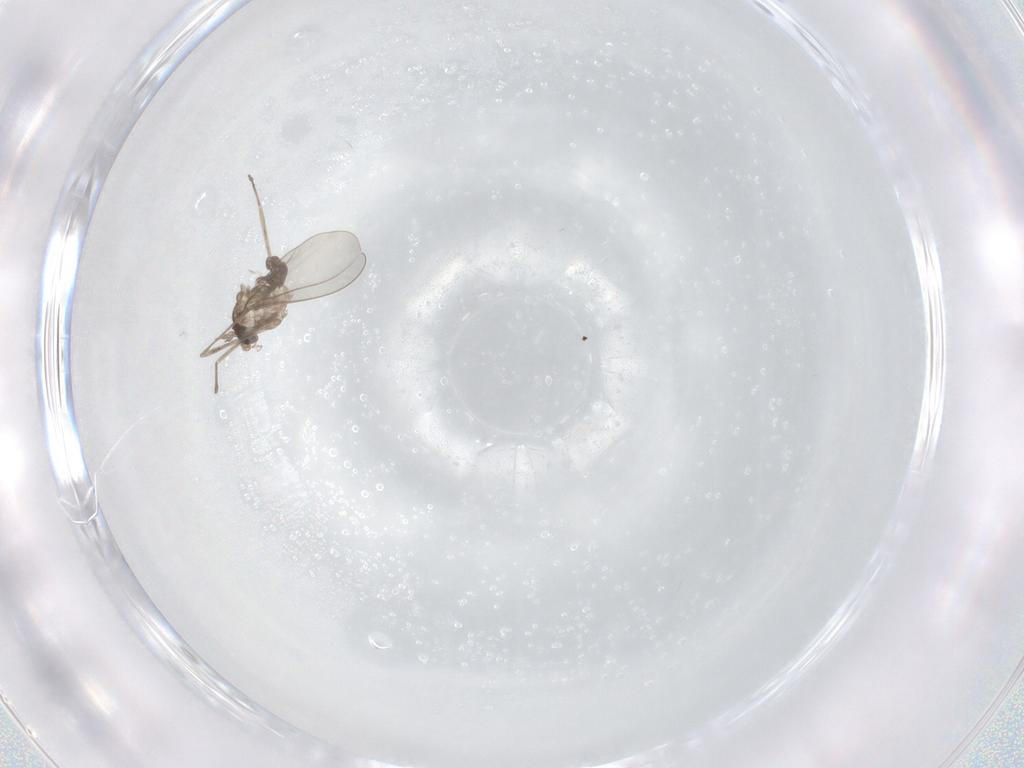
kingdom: Animalia
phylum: Arthropoda
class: Insecta
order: Diptera
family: Cecidomyiidae
